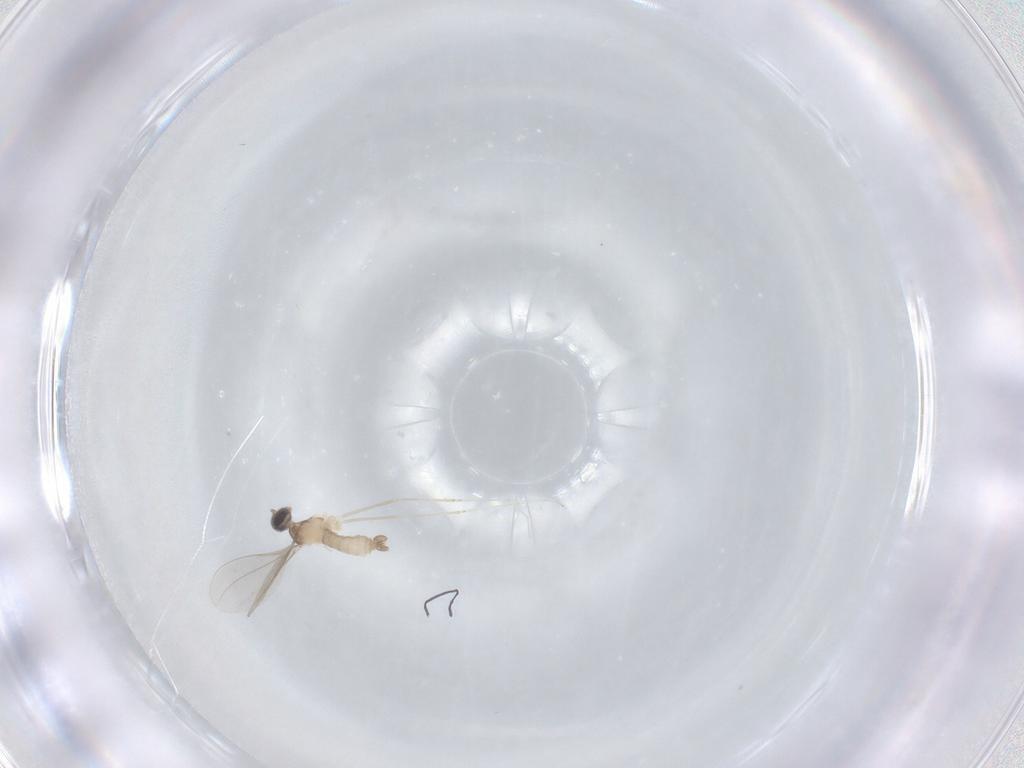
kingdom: Animalia
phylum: Arthropoda
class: Insecta
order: Diptera
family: Cecidomyiidae
